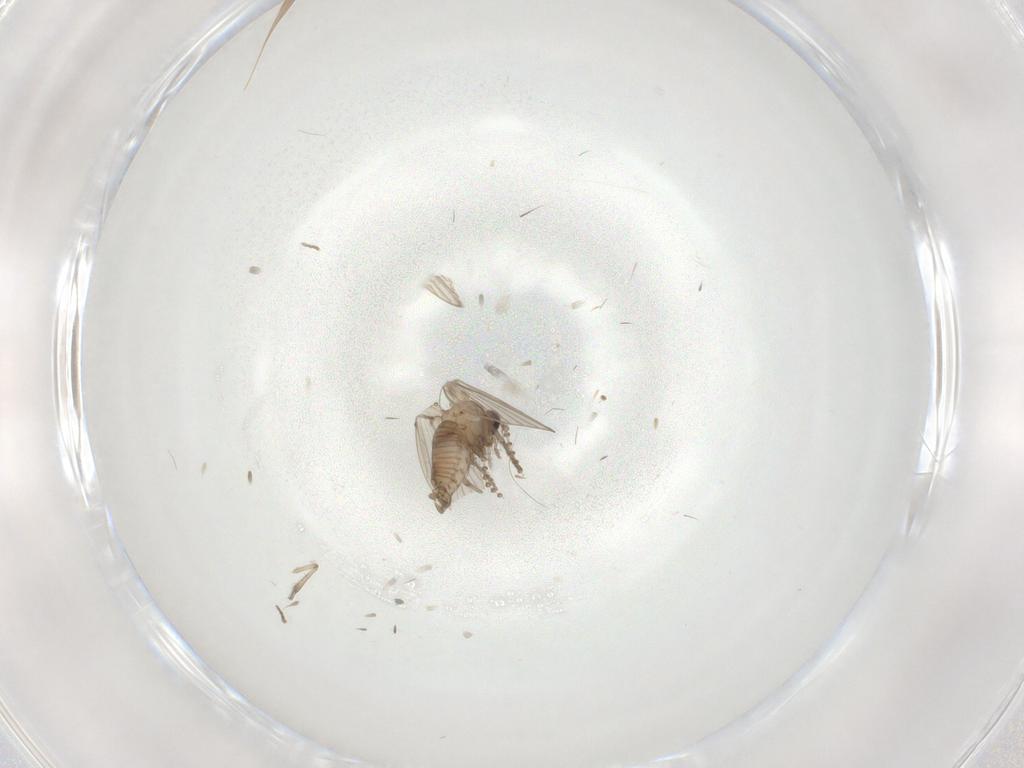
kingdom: Animalia
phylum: Arthropoda
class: Insecta
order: Diptera
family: Psychodidae
